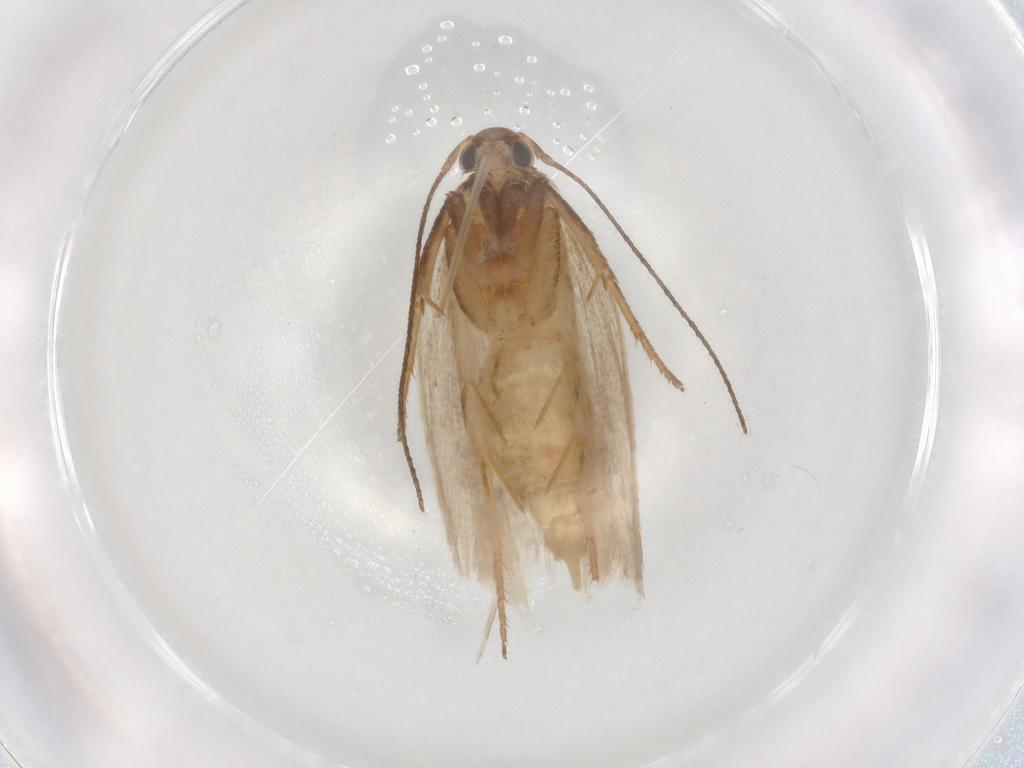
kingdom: Animalia
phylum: Arthropoda
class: Insecta
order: Lepidoptera
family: Gelechiidae
